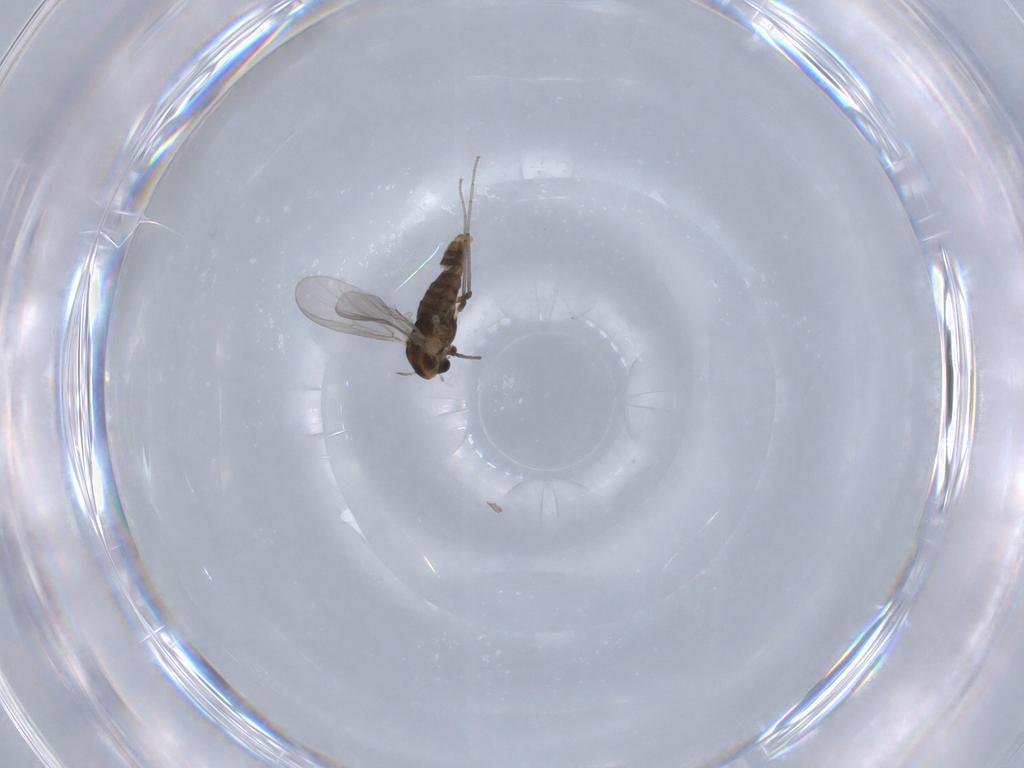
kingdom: Animalia
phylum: Arthropoda
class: Insecta
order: Diptera
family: Chironomidae
